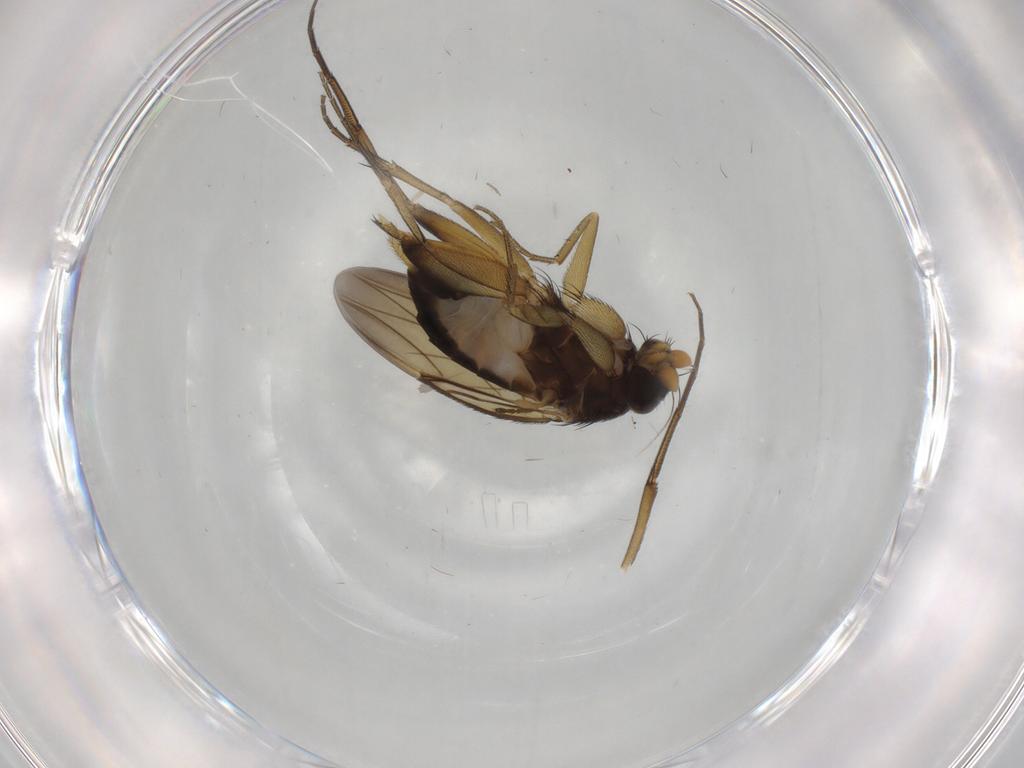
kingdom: Animalia
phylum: Arthropoda
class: Insecta
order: Diptera
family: Phoridae
